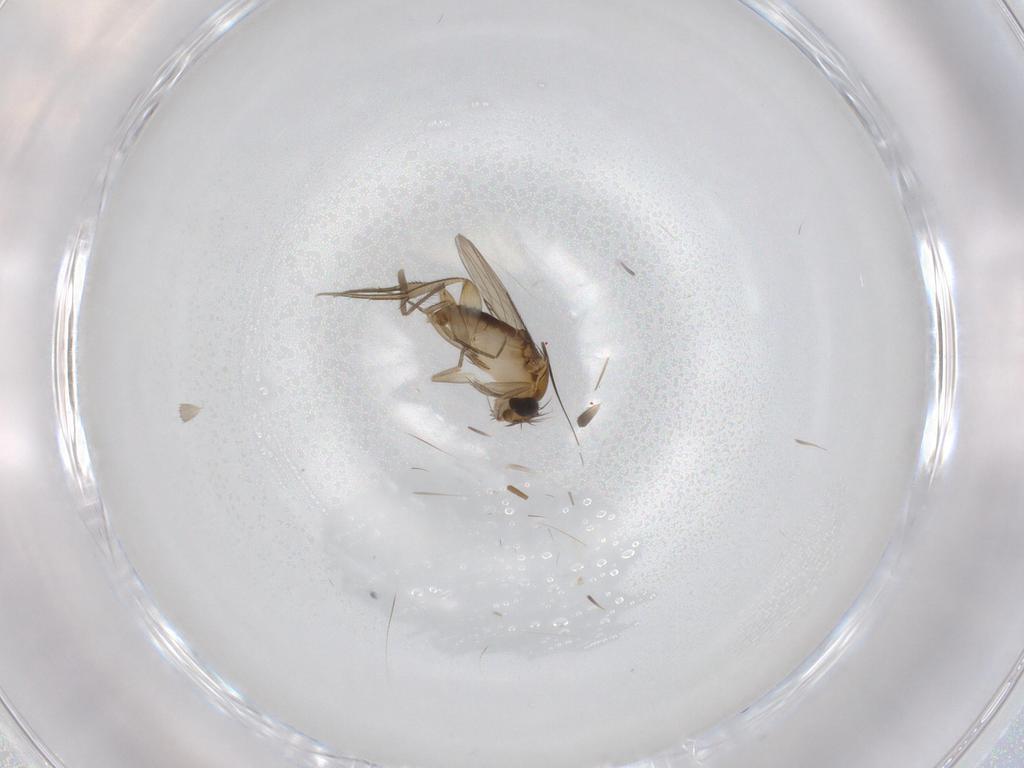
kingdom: Animalia
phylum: Arthropoda
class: Insecta
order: Diptera
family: Phoridae
